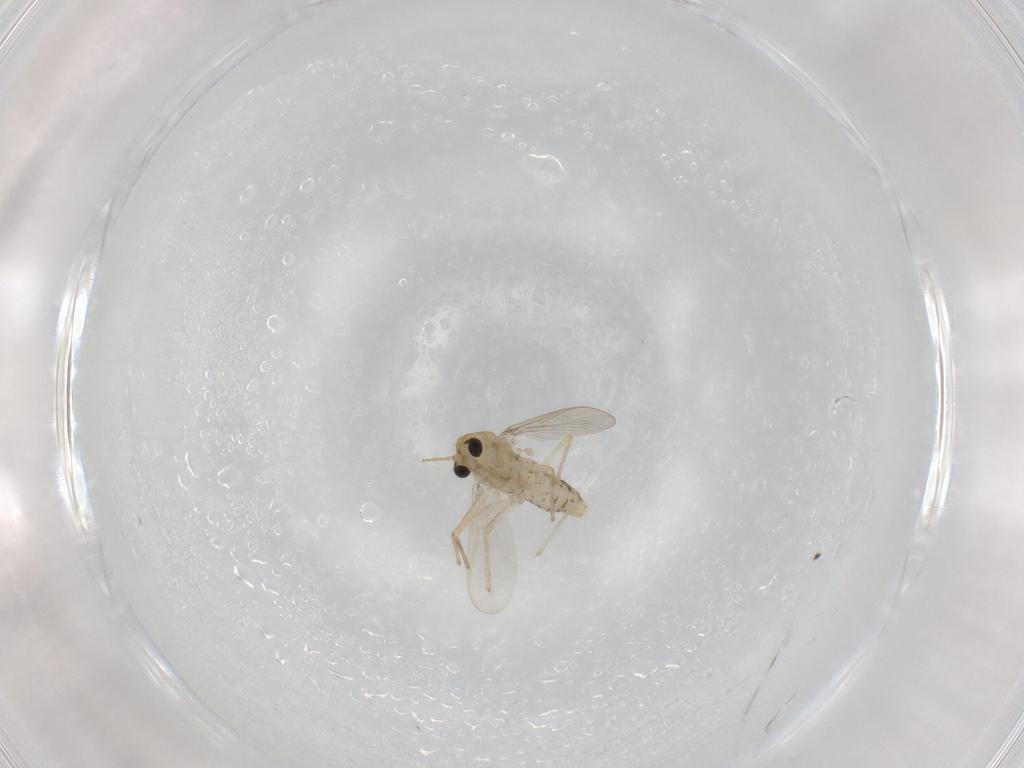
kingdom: Animalia
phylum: Arthropoda
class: Insecta
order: Diptera
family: Chironomidae
